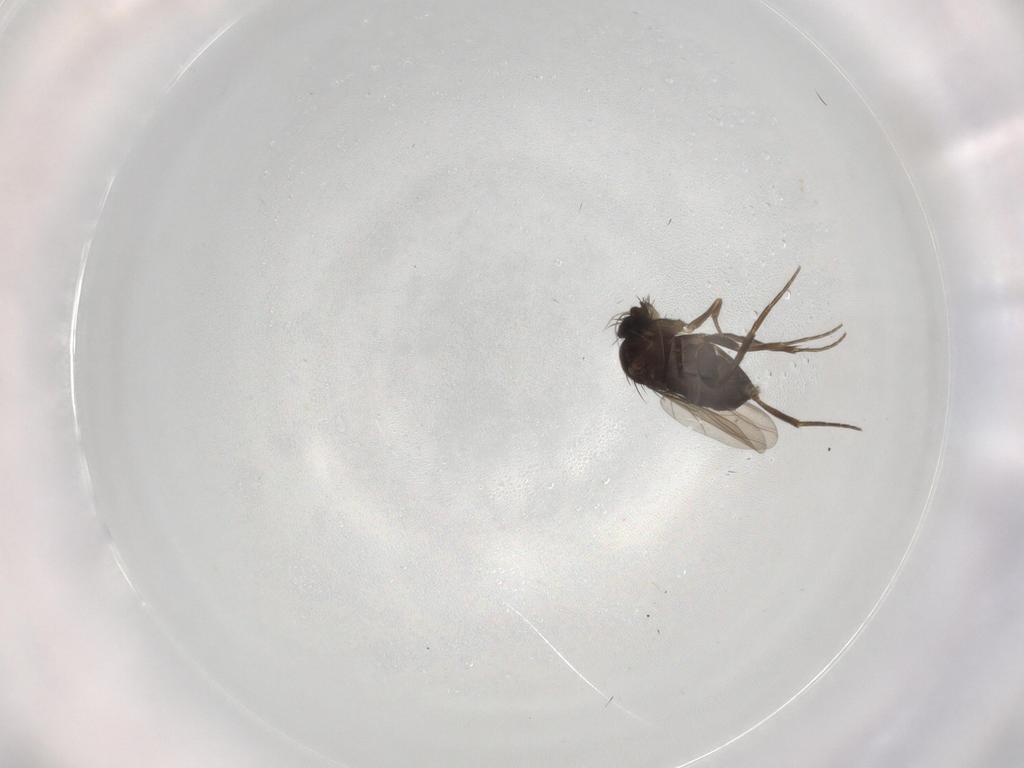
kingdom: Animalia
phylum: Arthropoda
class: Insecta
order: Diptera
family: Phoridae
